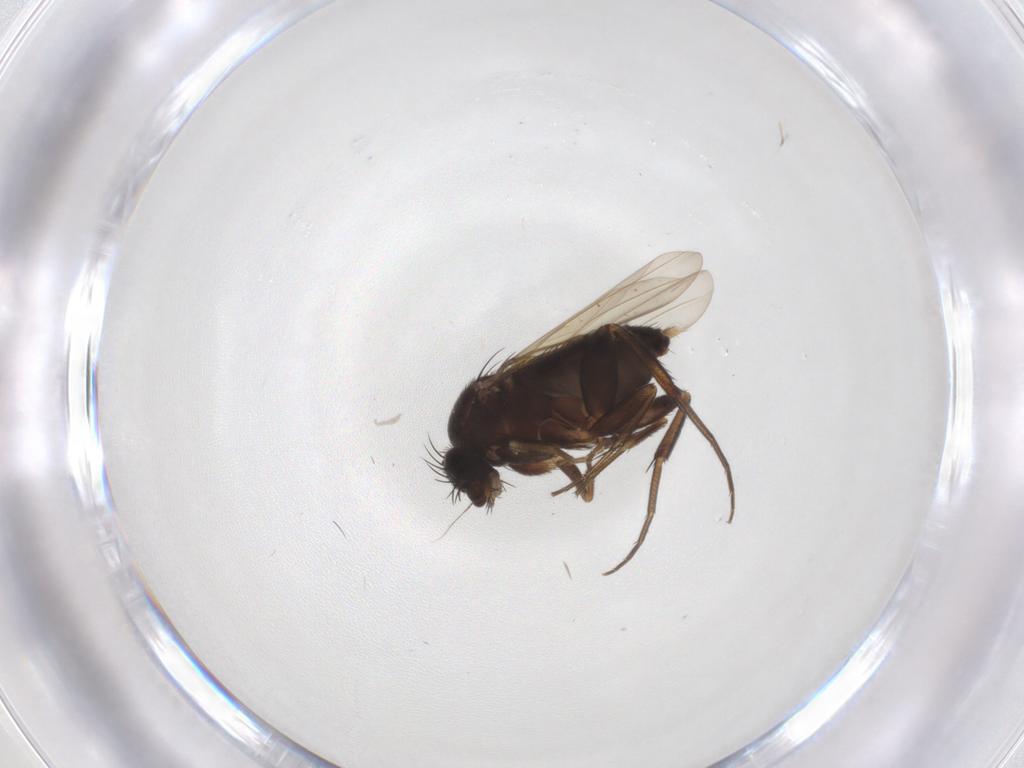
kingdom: Animalia
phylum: Arthropoda
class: Insecta
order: Diptera
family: Phoridae
